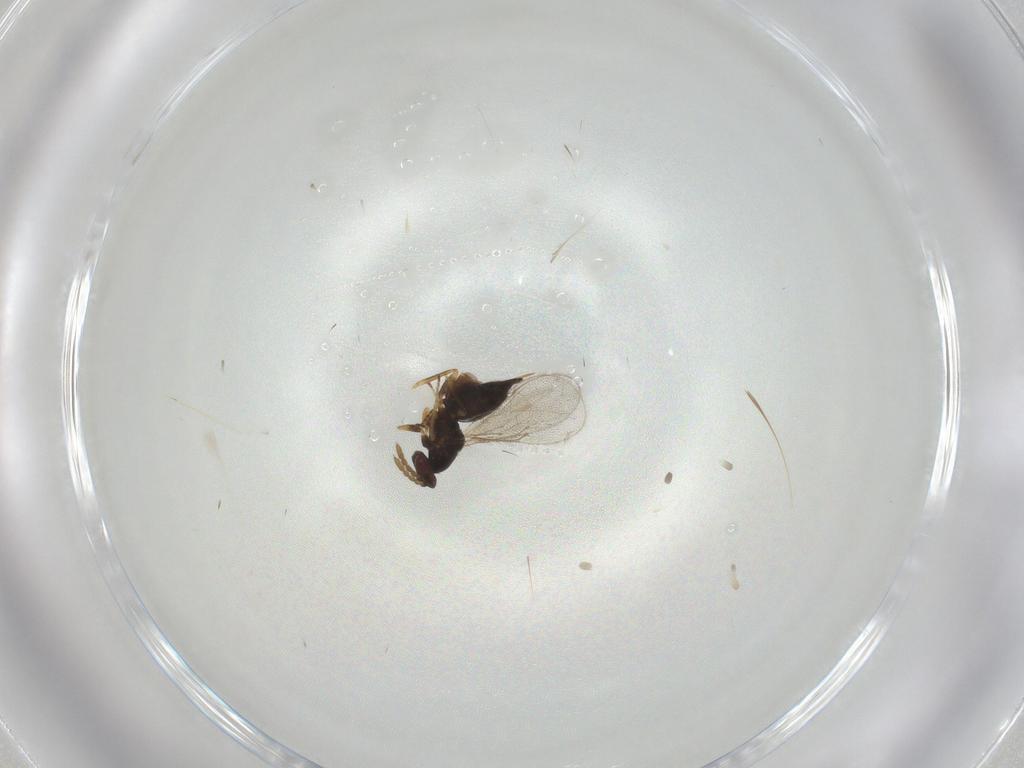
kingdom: Animalia
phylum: Arthropoda
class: Insecta
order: Hymenoptera
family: Eulophidae
